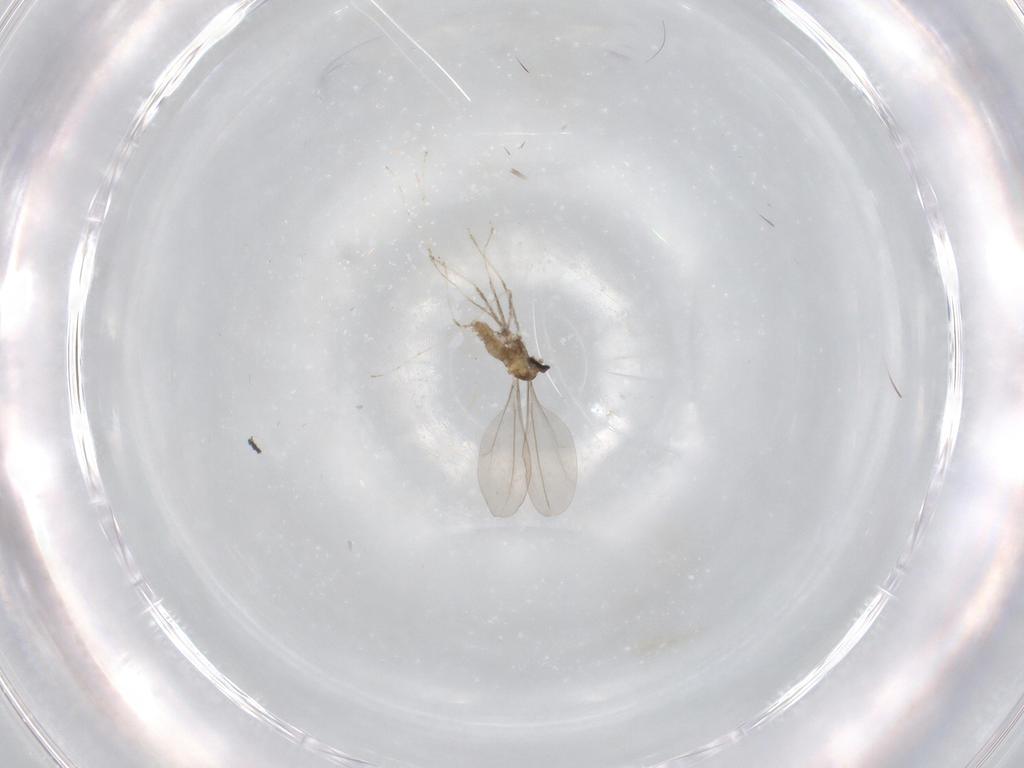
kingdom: Animalia
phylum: Arthropoda
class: Insecta
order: Diptera
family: Sciaridae
